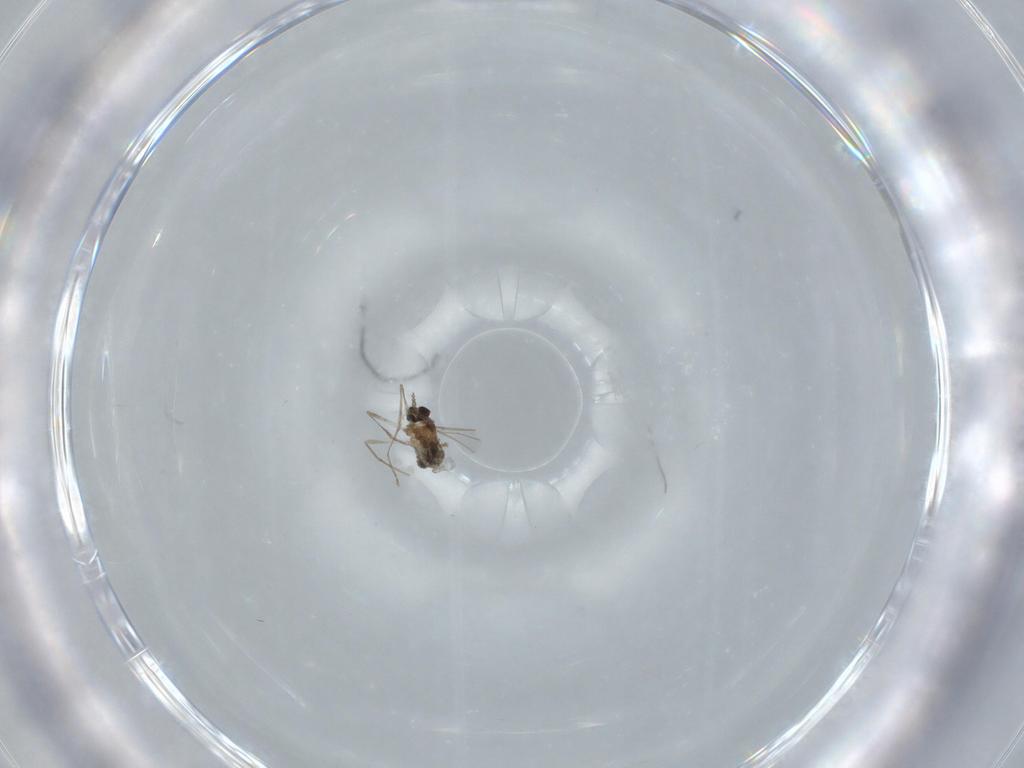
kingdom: Animalia
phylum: Arthropoda
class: Insecta
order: Diptera
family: Cecidomyiidae
